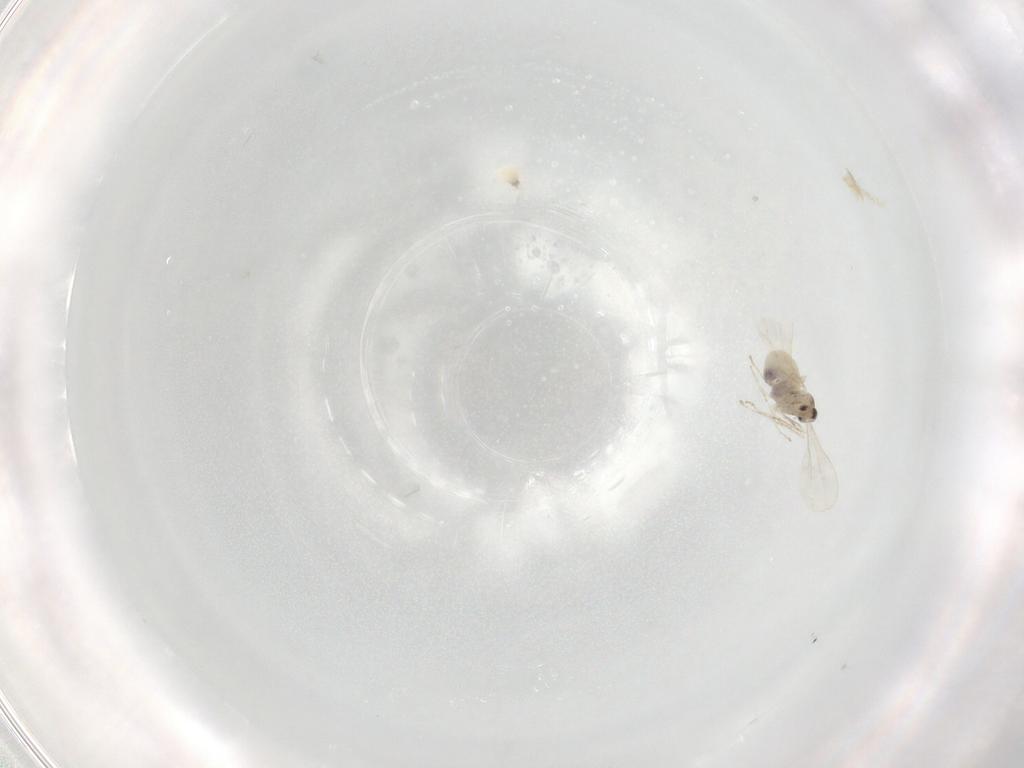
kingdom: Animalia
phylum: Arthropoda
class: Insecta
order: Diptera
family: Cecidomyiidae
